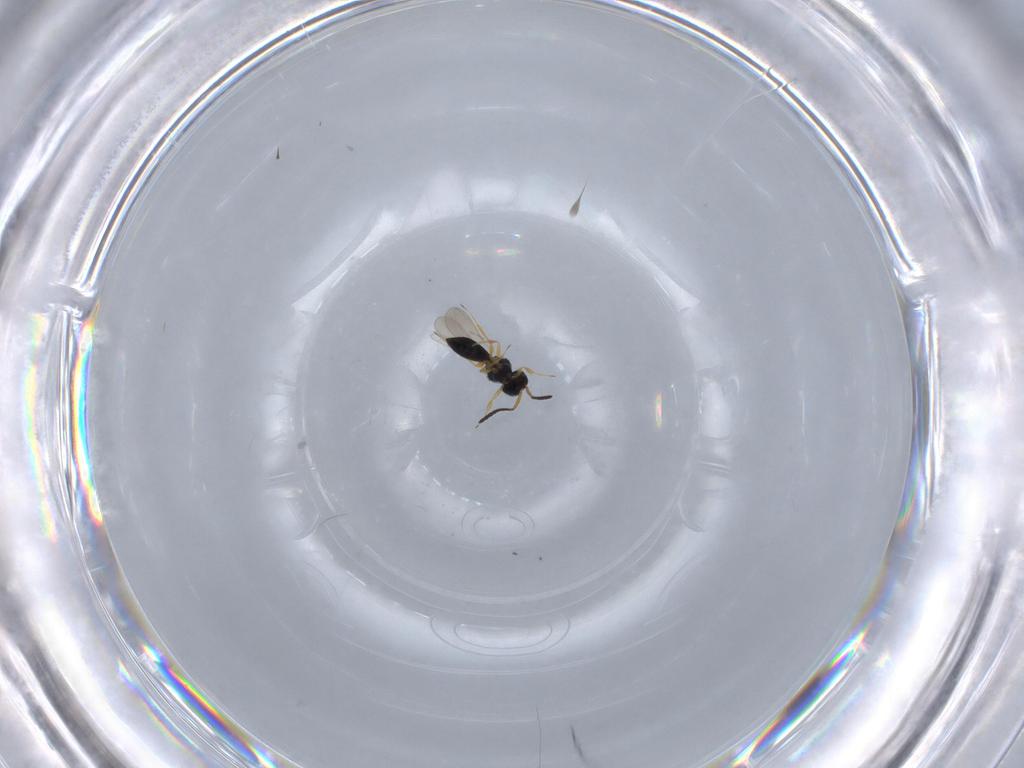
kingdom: Animalia
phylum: Arthropoda
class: Insecta
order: Hymenoptera
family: Scelionidae
